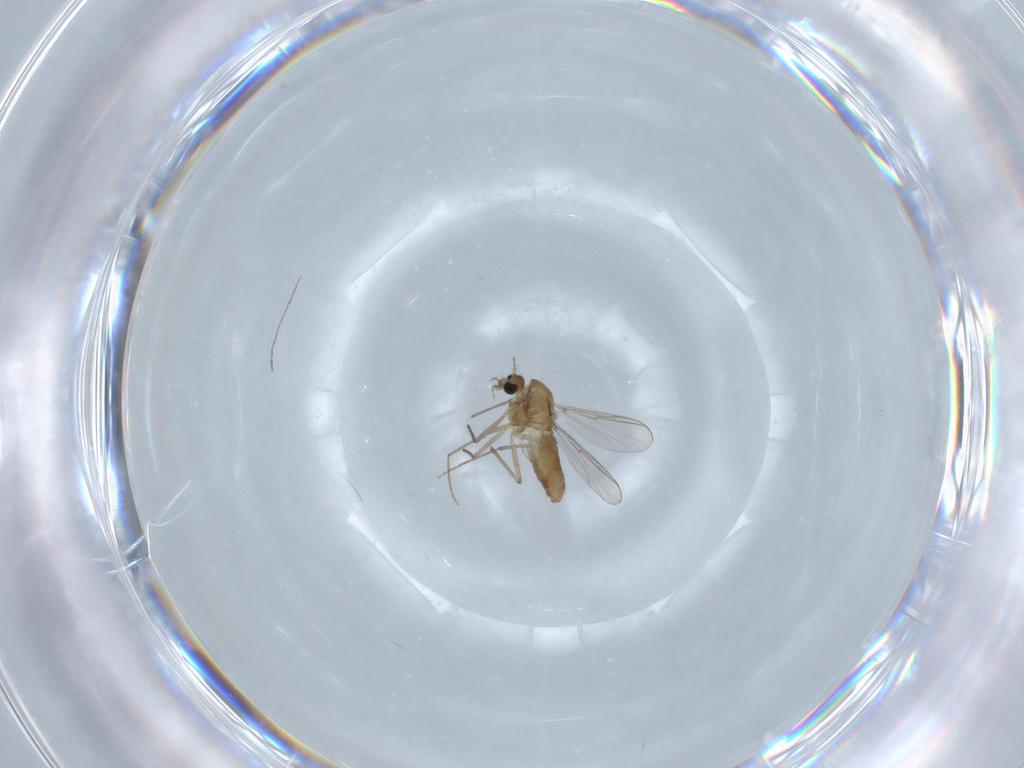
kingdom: Animalia
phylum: Arthropoda
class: Insecta
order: Diptera
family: Chironomidae
